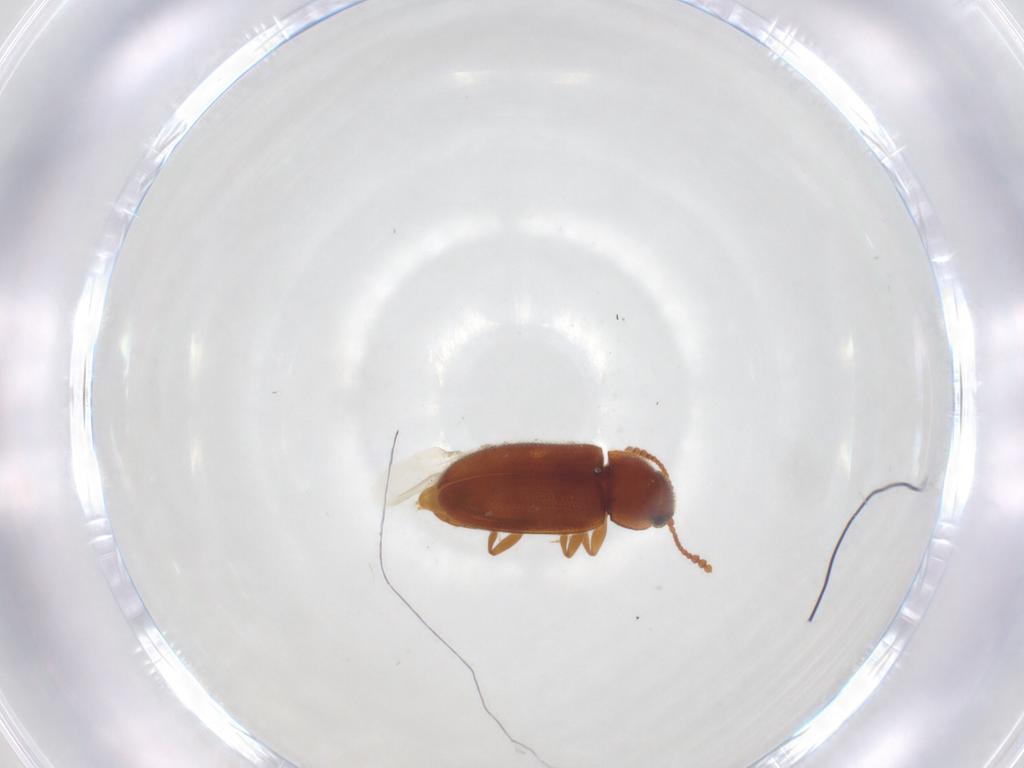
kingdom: Animalia
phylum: Arthropoda
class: Insecta
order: Coleoptera
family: Erotylidae
